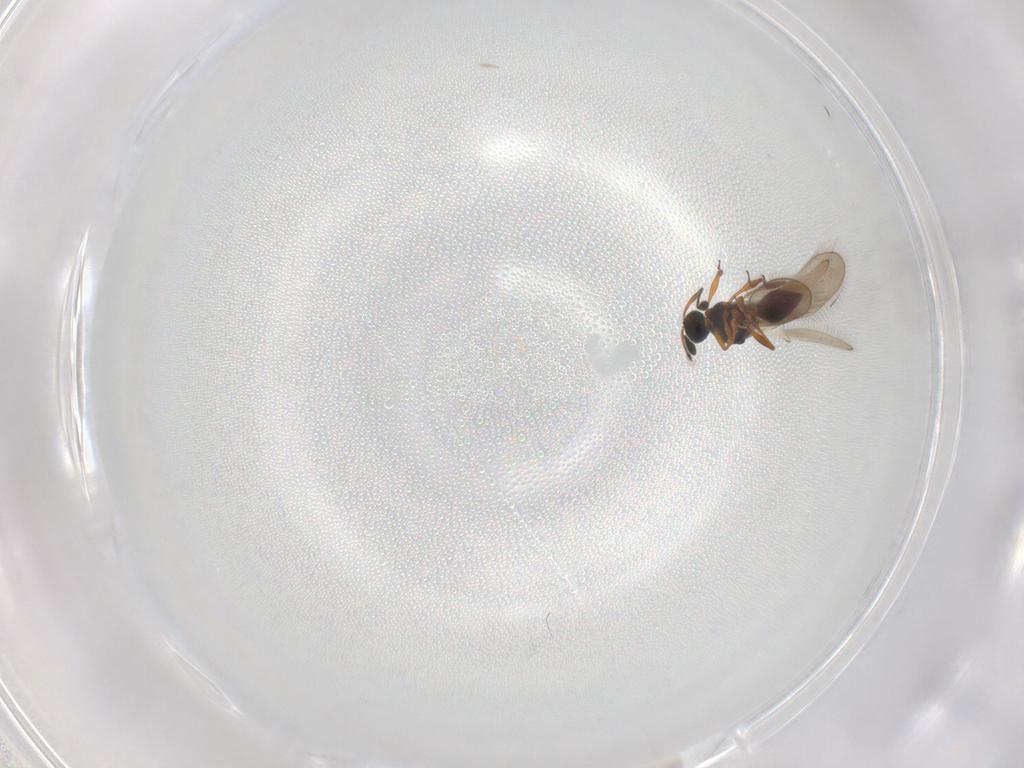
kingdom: Animalia
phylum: Arthropoda
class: Insecta
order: Hymenoptera
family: Platygastridae
